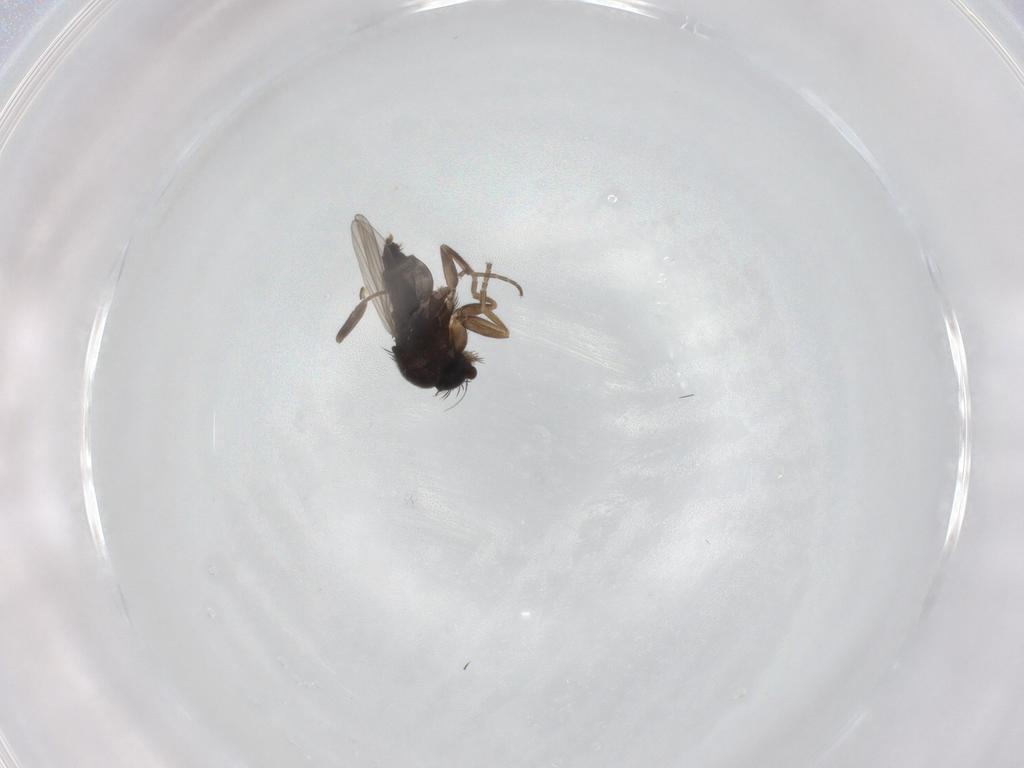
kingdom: Animalia
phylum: Arthropoda
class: Insecta
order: Diptera
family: Phoridae
